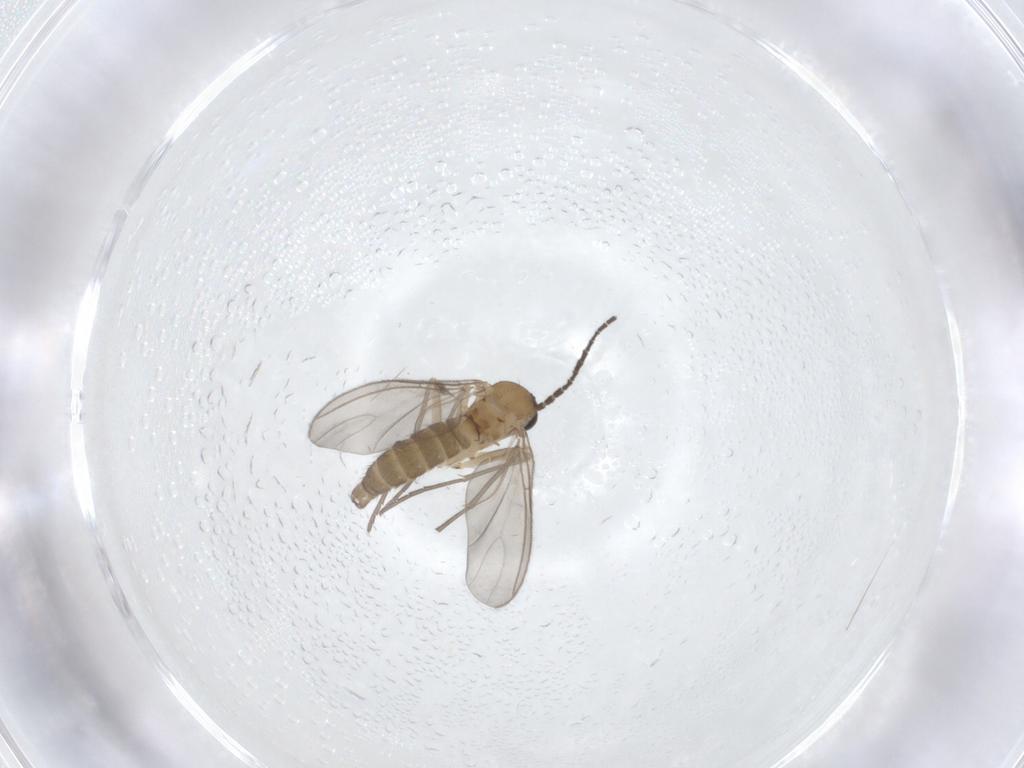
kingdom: Animalia
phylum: Arthropoda
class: Insecta
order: Diptera
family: Sciaridae
